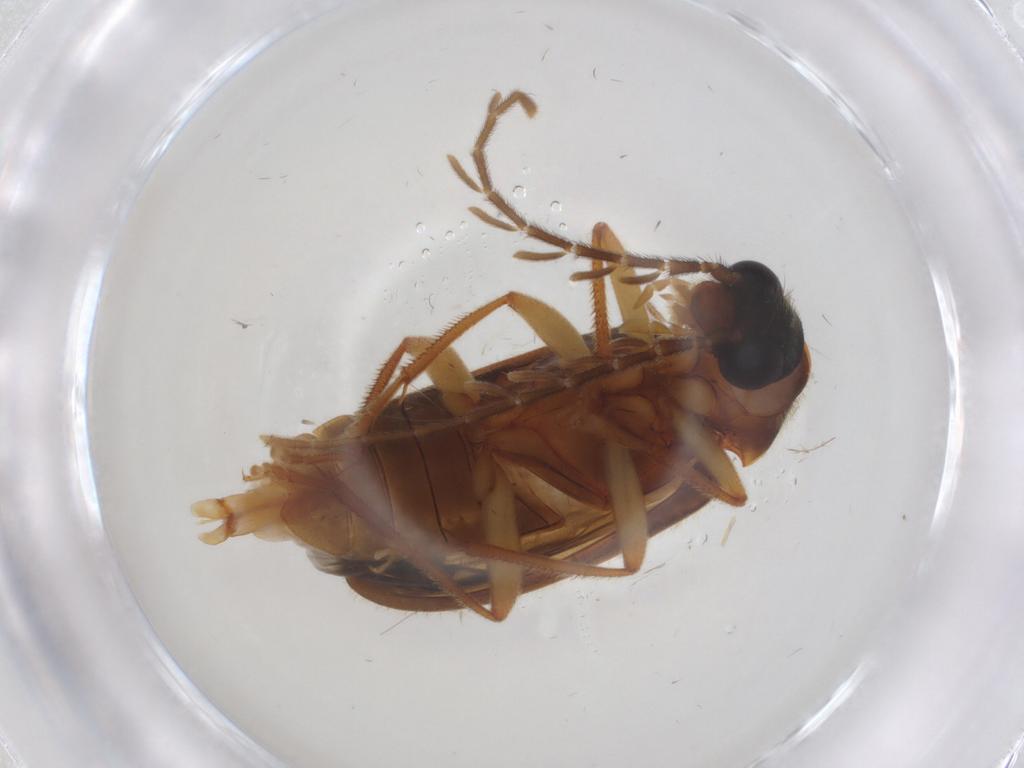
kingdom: Animalia
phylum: Arthropoda
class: Insecta
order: Coleoptera
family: Ptilodactylidae
